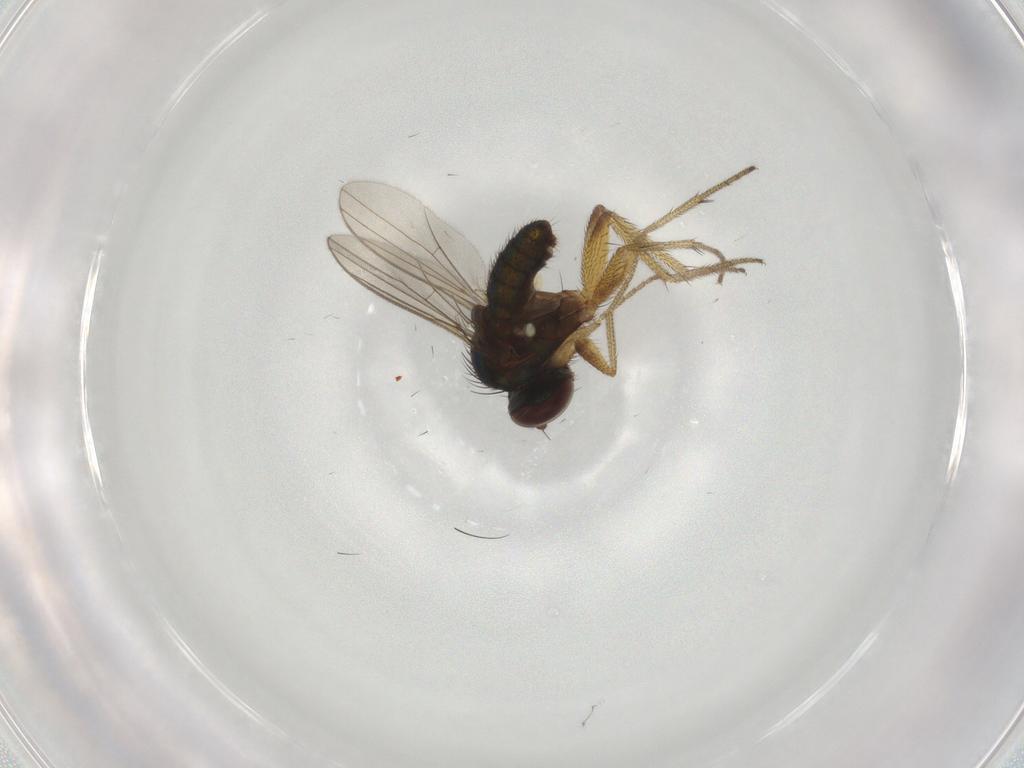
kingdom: Animalia
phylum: Arthropoda
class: Insecta
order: Diptera
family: Dolichopodidae
